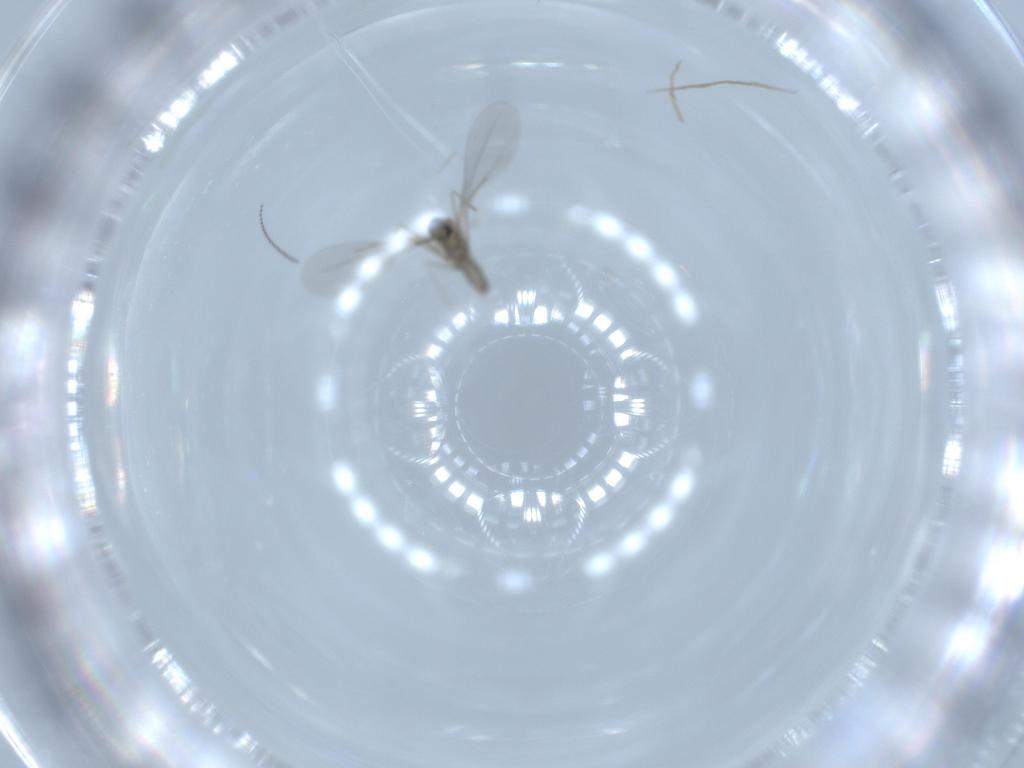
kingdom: Animalia
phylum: Arthropoda
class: Insecta
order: Diptera
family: Cecidomyiidae
